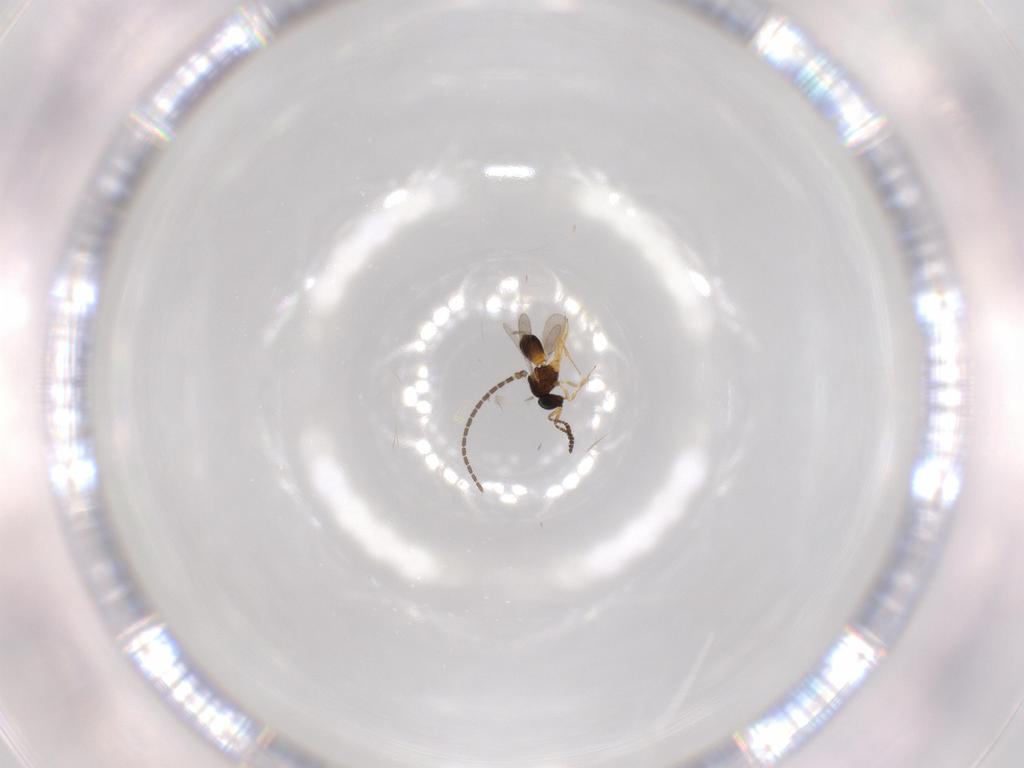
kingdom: Animalia
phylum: Arthropoda
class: Insecta
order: Hymenoptera
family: Scelionidae
